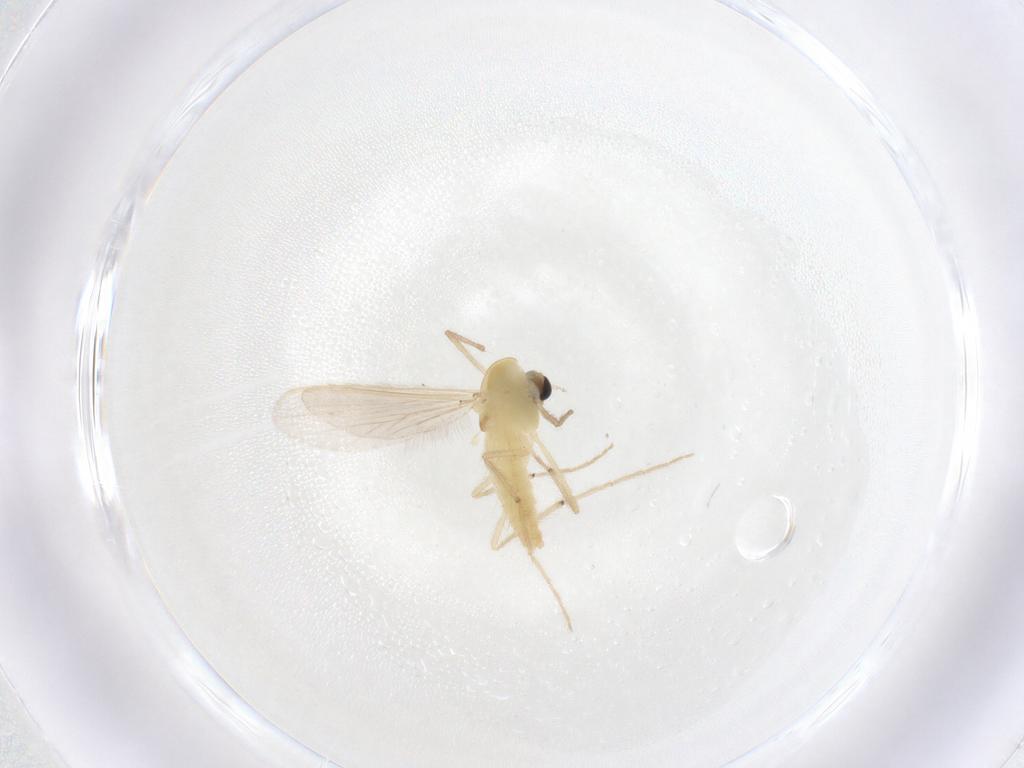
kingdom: Animalia
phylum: Arthropoda
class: Insecta
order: Diptera
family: Chironomidae
